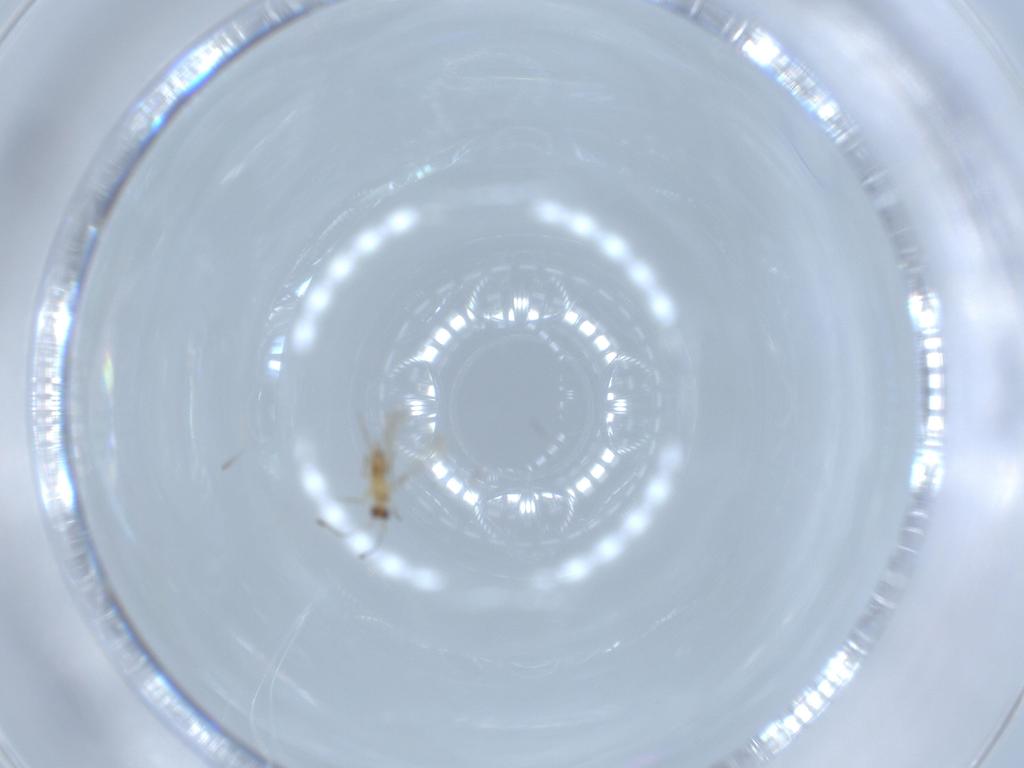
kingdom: Animalia
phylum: Arthropoda
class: Insecta
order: Hymenoptera
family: Mymaridae
